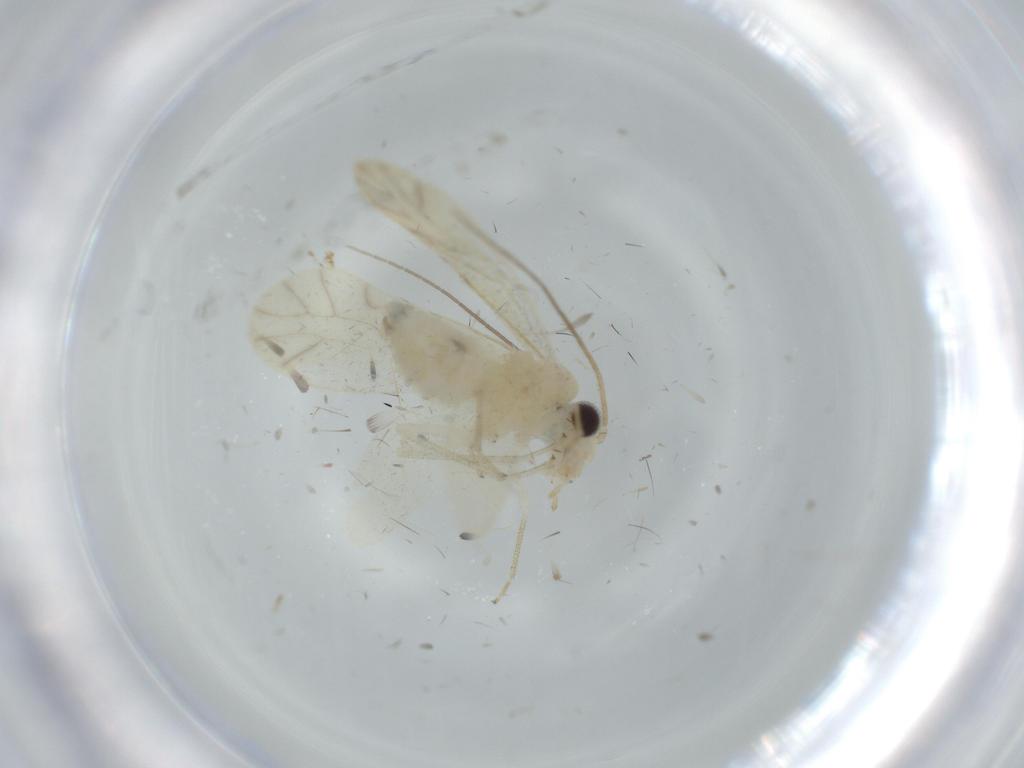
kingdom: Animalia
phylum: Arthropoda
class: Insecta
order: Psocodea
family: Caeciliusidae
